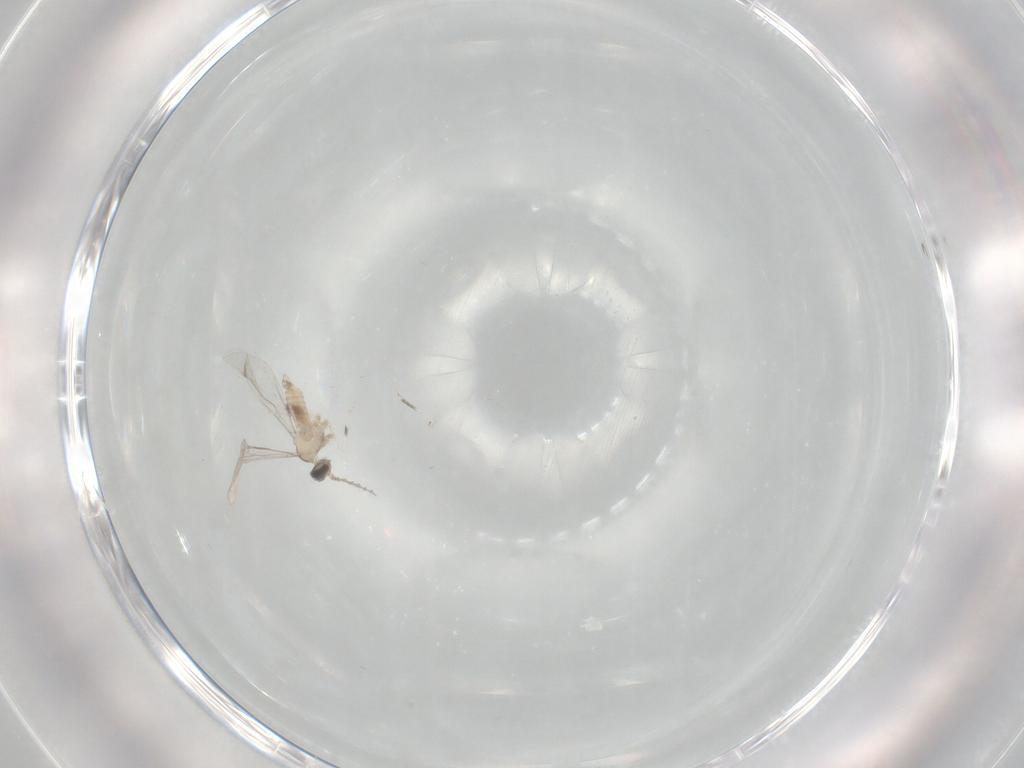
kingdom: Animalia
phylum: Arthropoda
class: Insecta
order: Diptera
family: Cecidomyiidae
